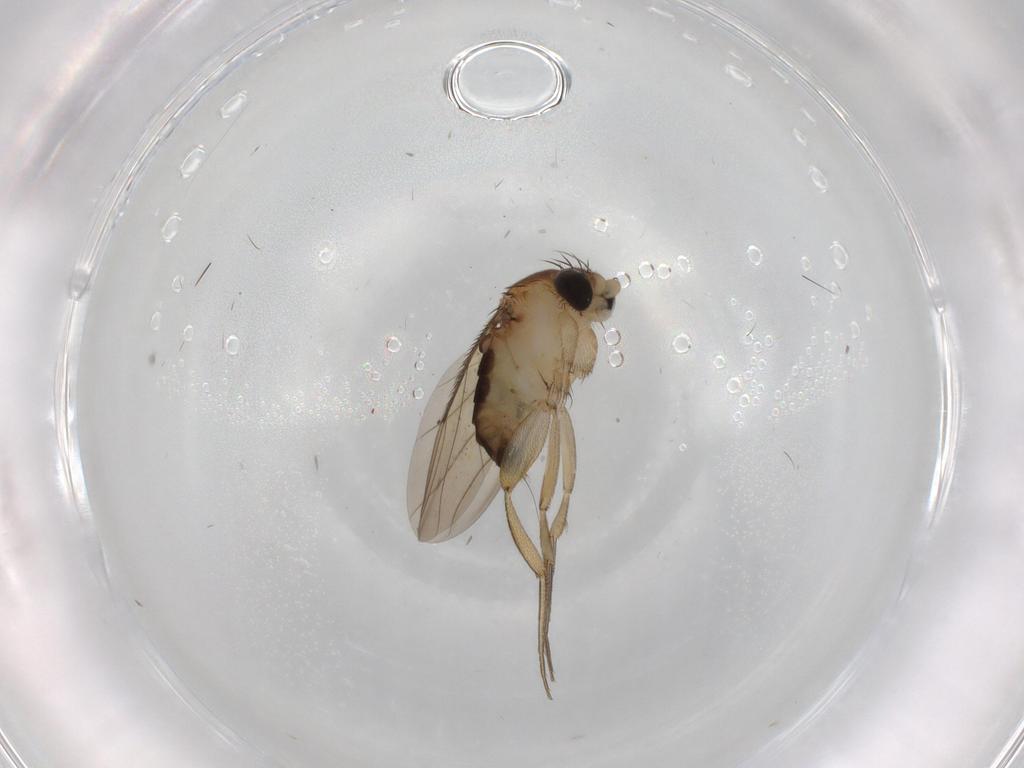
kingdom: Animalia
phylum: Arthropoda
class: Insecta
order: Diptera
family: Phoridae
